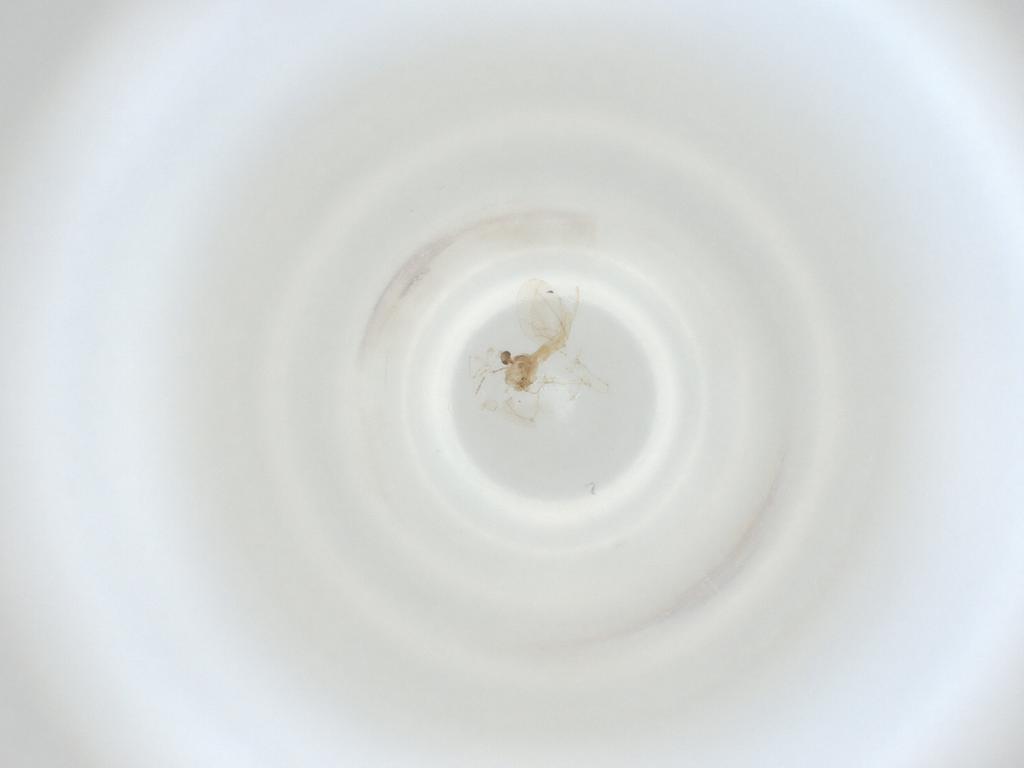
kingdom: Animalia
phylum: Arthropoda
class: Insecta
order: Diptera
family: Cecidomyiidae
